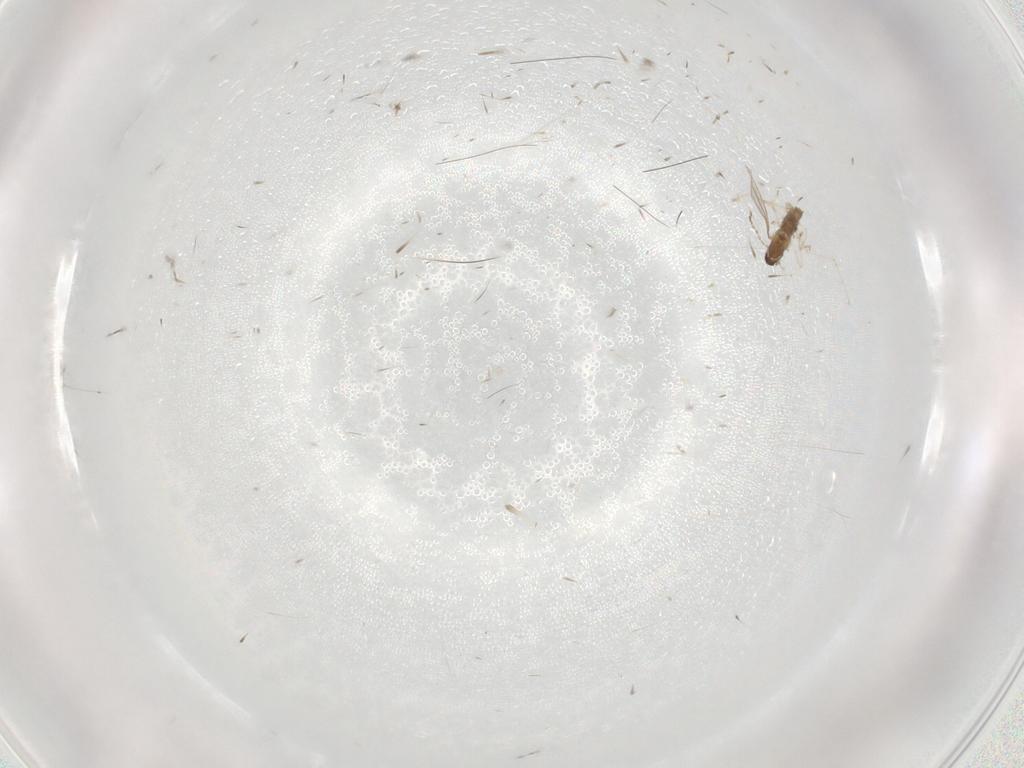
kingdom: Animalia
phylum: Arthropoda
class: Insecta
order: Diptera
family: Cecidomyiidae
